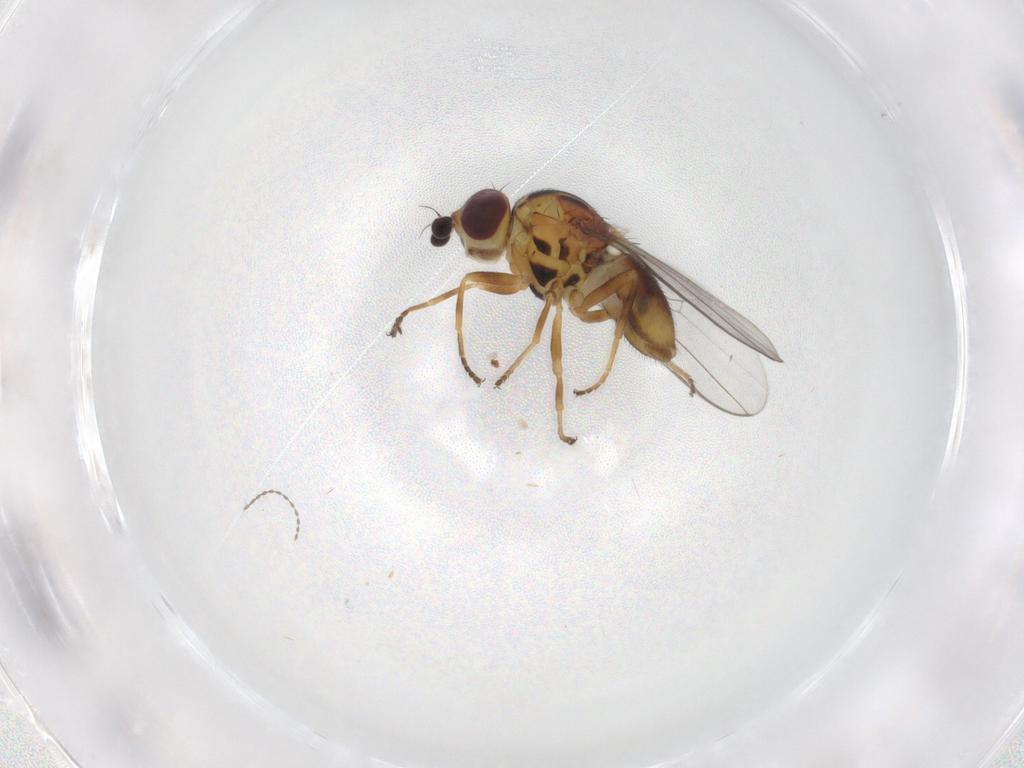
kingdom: Animalia
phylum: Arthropoda
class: Insecta
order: Diptera
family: Chloropidae
